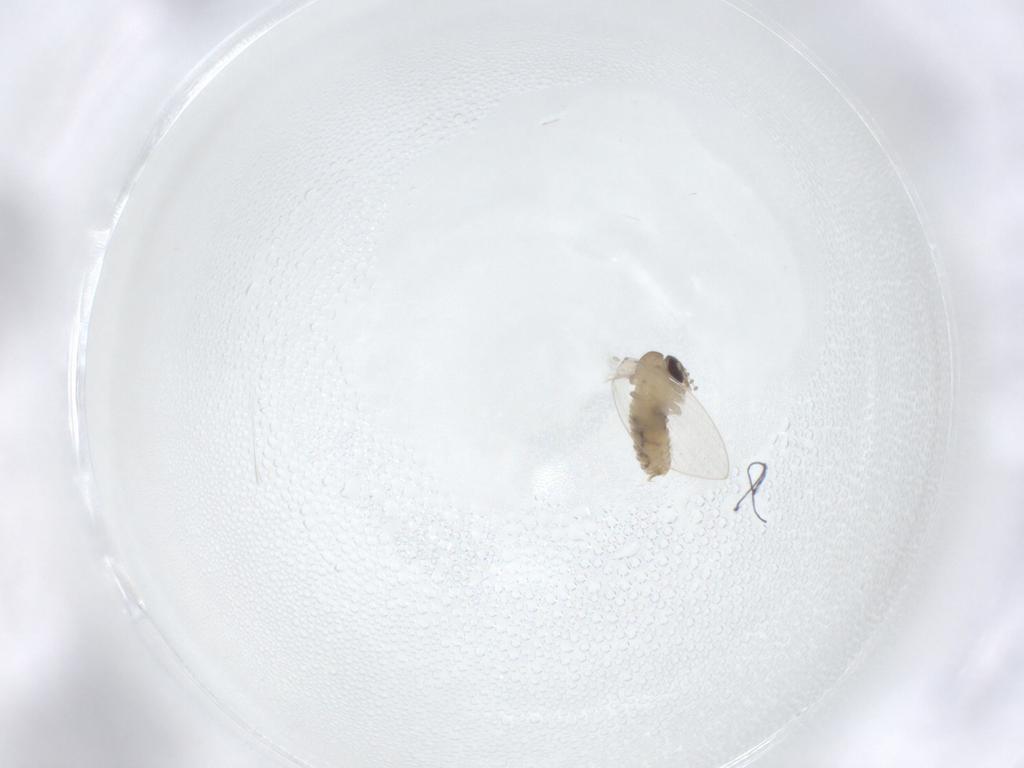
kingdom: Animalia
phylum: Arthropoda
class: Insecta
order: Diptera
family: Psychodidae
